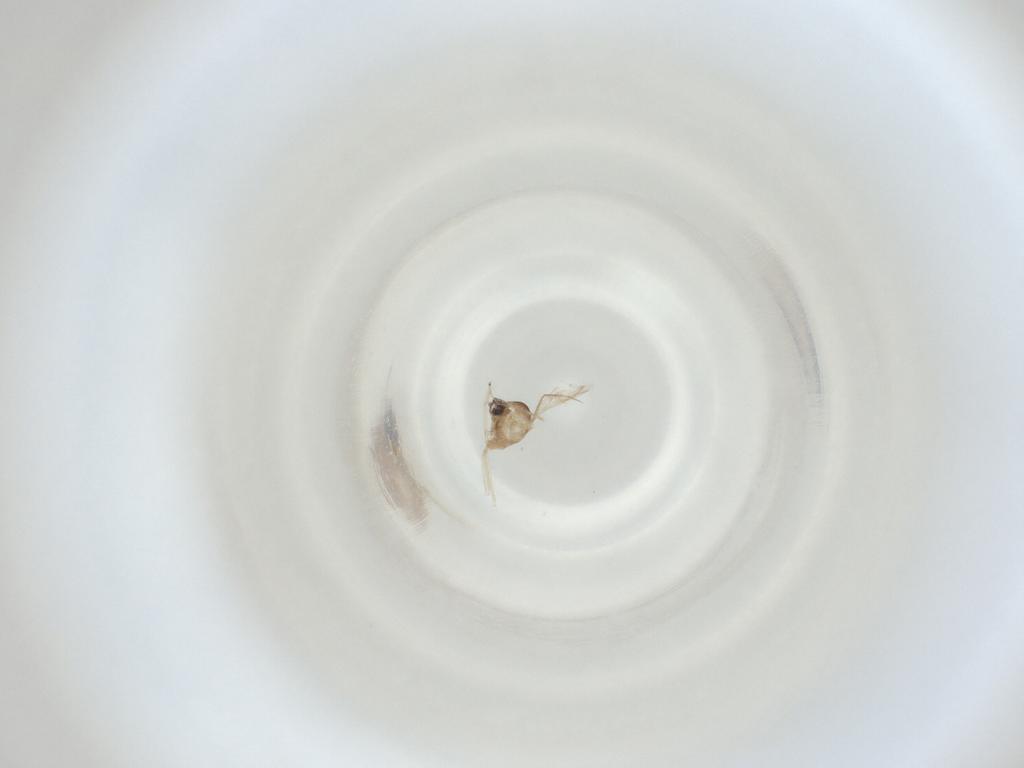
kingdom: Animalia
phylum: Arthropoda
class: Insecta
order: Diptera
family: Cecidomyiidae
